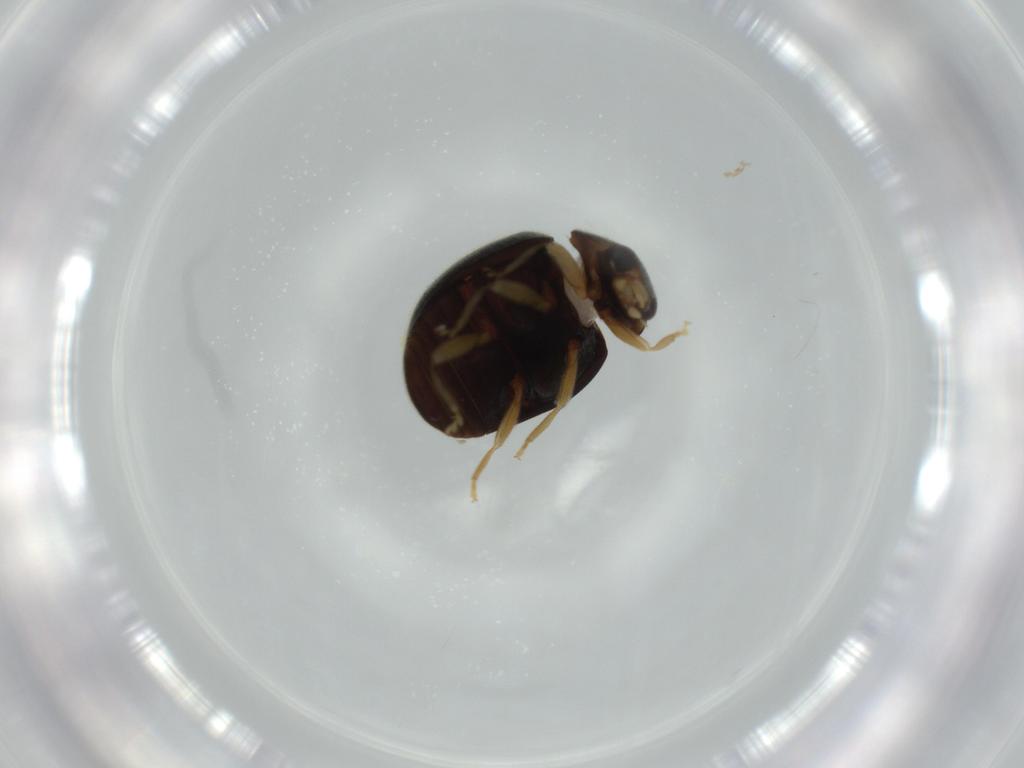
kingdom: Animalia
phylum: Arthropoda
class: Insecta
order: Coleoptera
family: Coccinellidae
